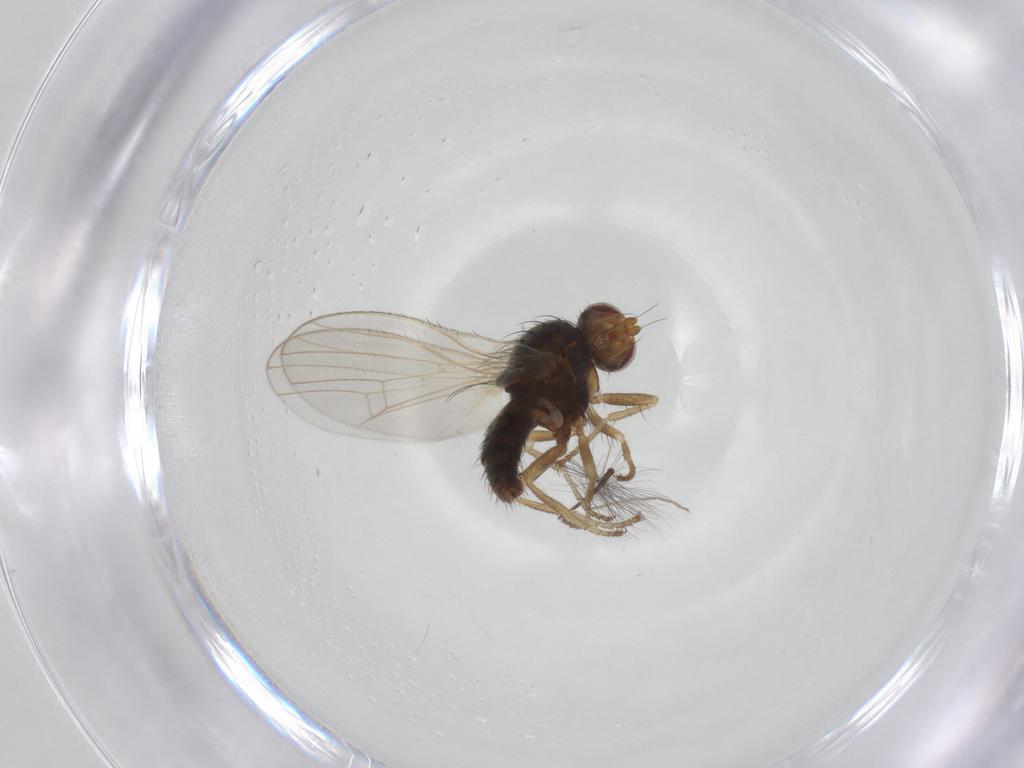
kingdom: Animalia
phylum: Arthropoda
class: Insecta
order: Diptera
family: Heleomyzidae
